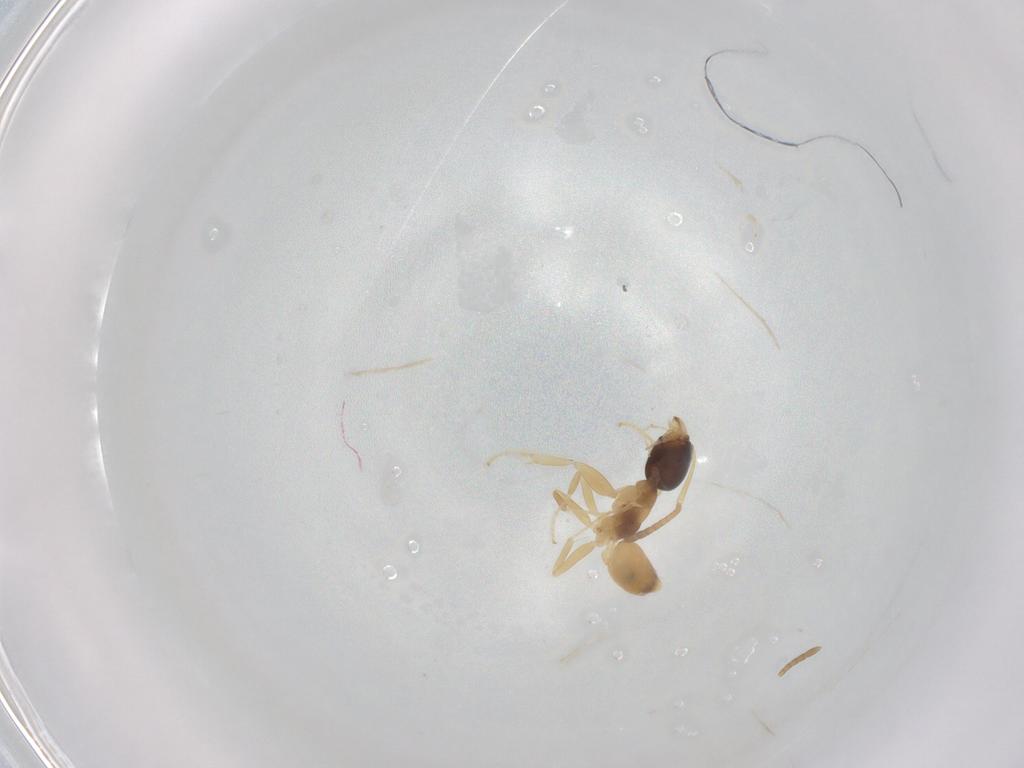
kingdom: Animalia
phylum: Arthropoda
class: Insecta
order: Hymenoptera
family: Formicidae
